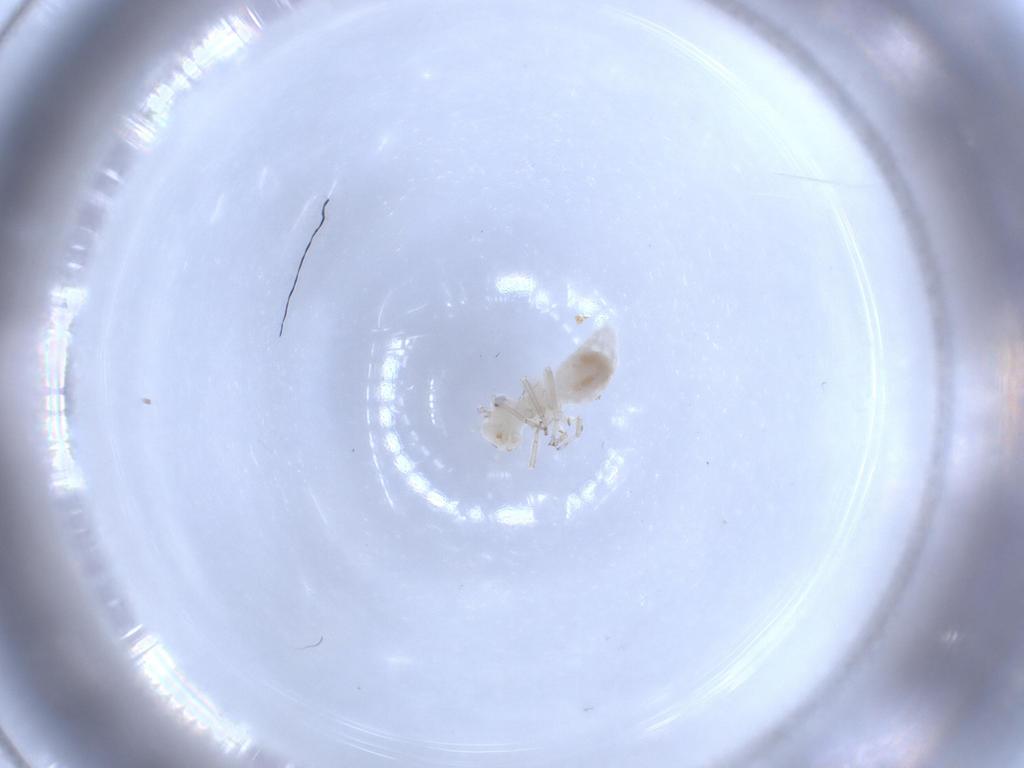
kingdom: Animalia
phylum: Arthropoda
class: Insecta
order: Psocodea
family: Caeciliusidae
